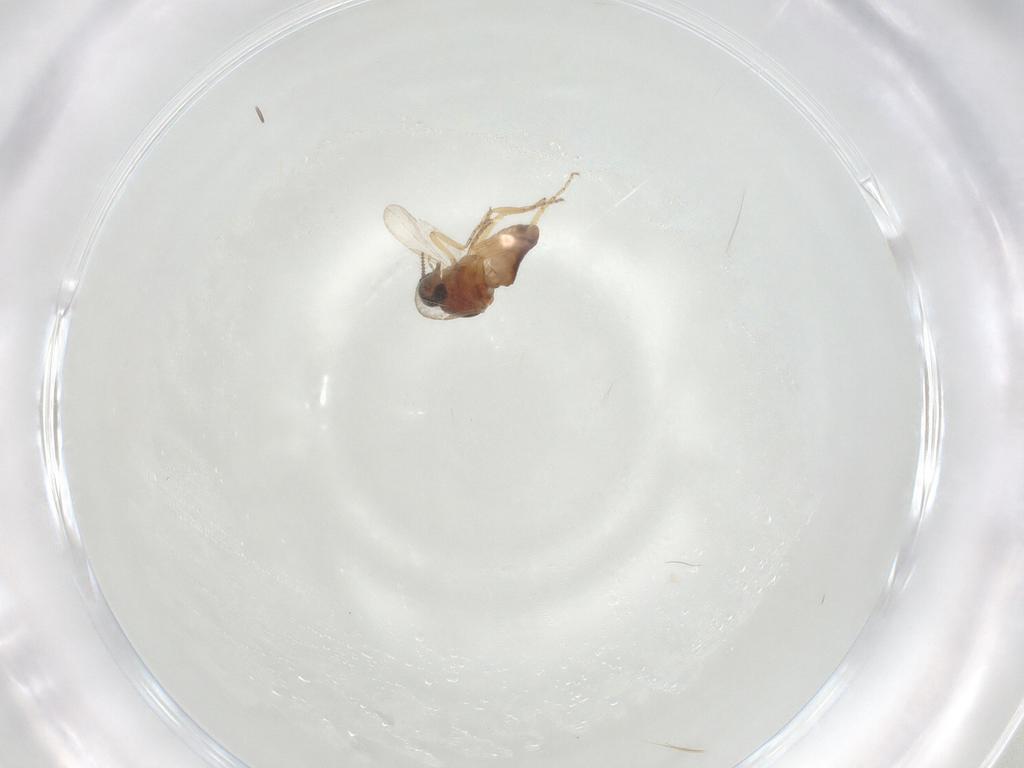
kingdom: Animalia
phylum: Arthropoda
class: Insecta
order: Diptera
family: Ceratopogonidae
